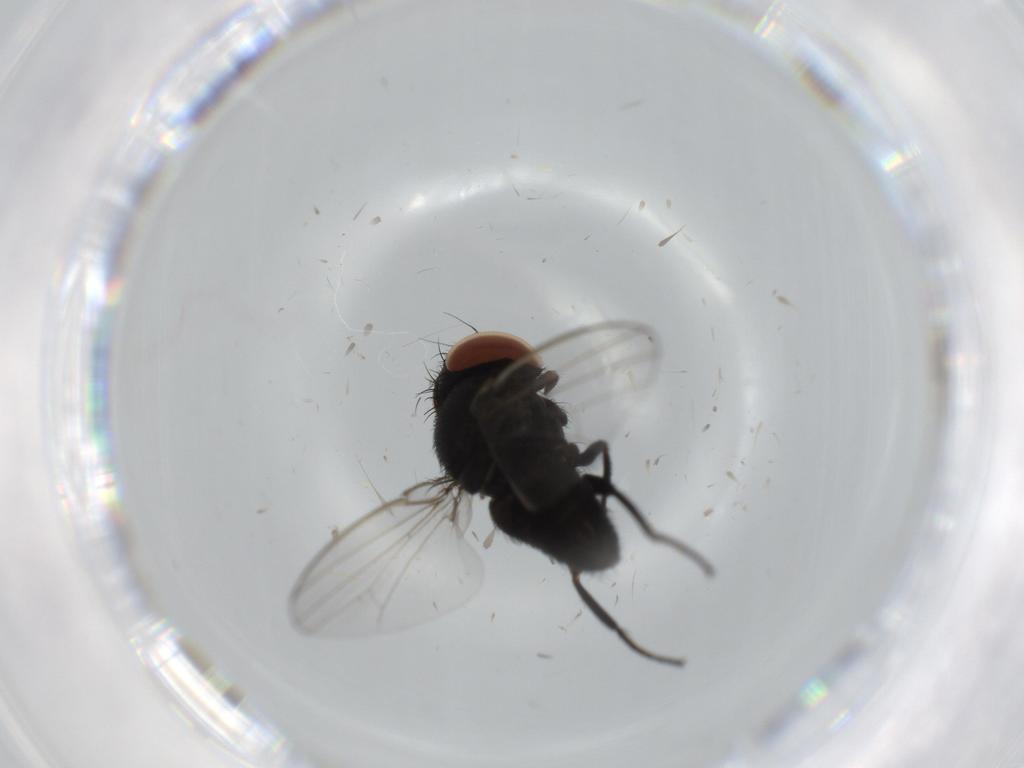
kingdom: Animalia
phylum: Arthropoda
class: Insecta
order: Diptera
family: Milichiidae
